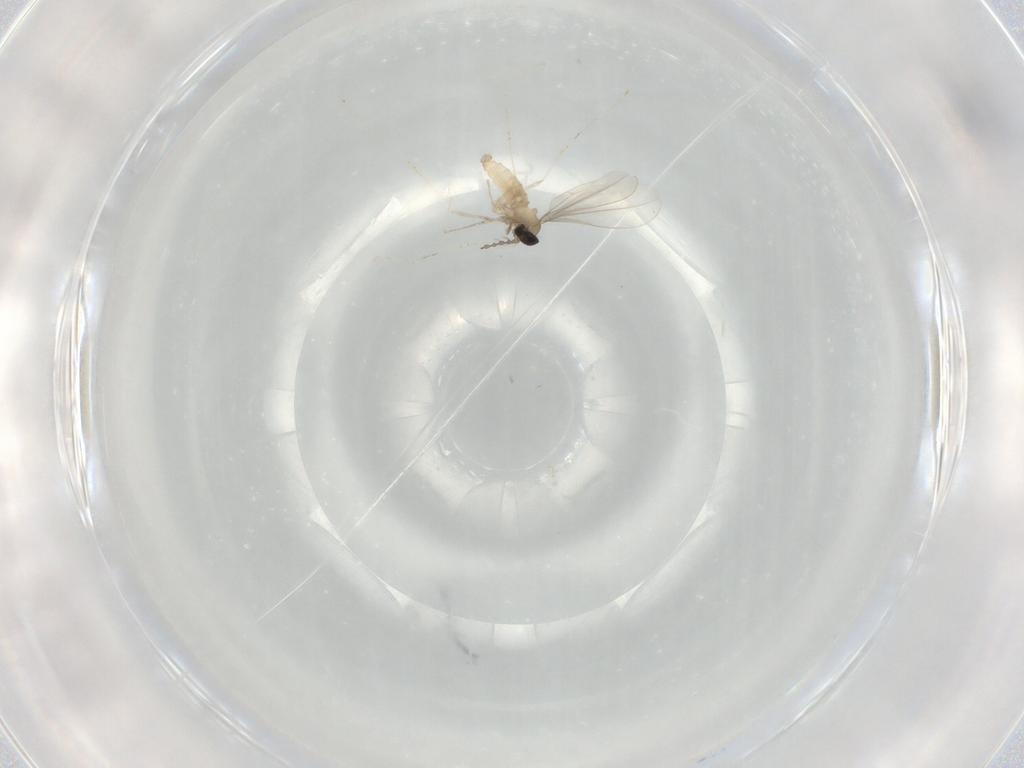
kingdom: Animalia
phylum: Arthropoda
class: Insecta
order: Diptera
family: Cecidomyiidae
